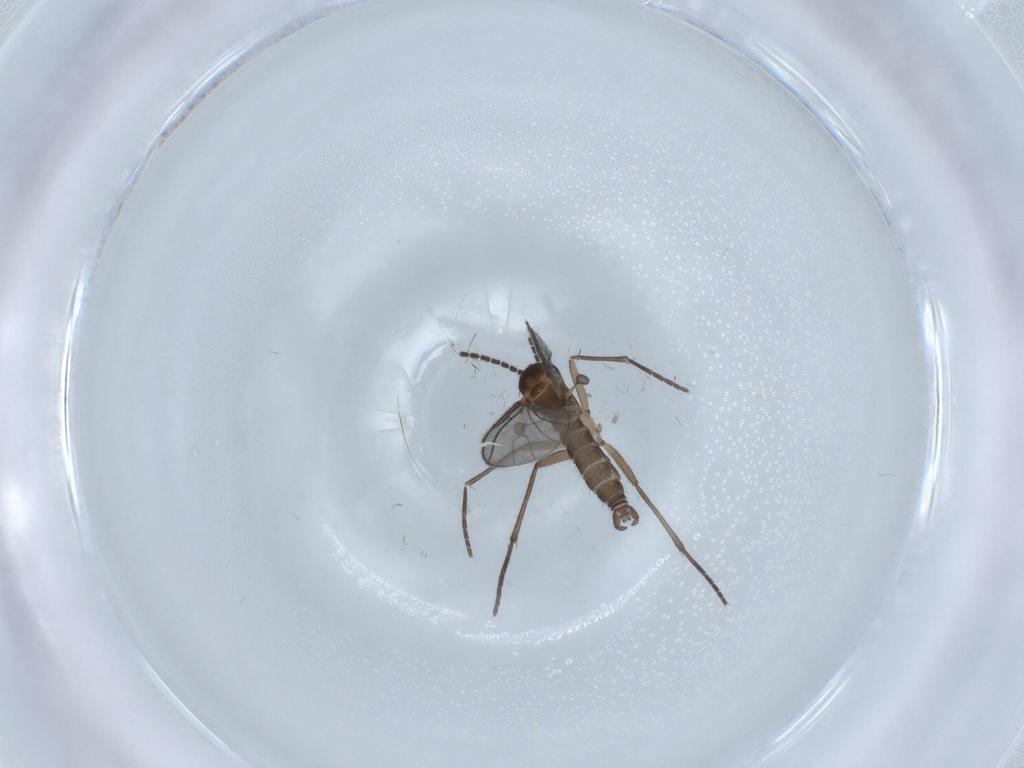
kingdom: Animalia
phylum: Arthropoda
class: Insecta
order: Diptera
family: Sciaridae
